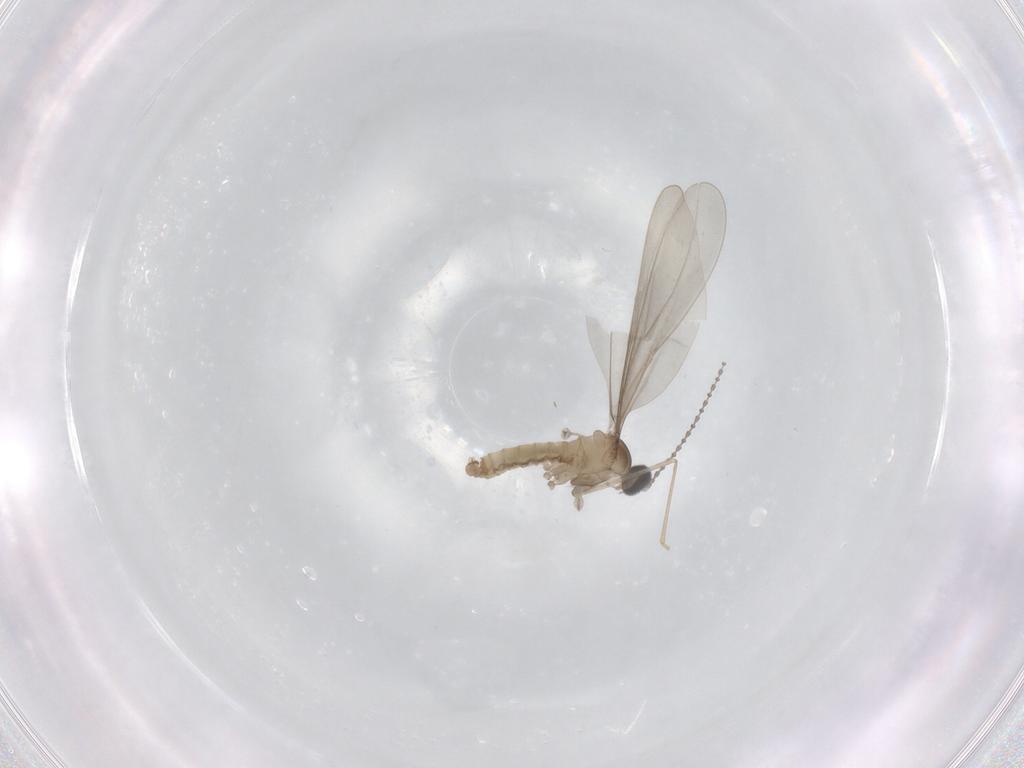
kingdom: Animalia
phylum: Arthropoda
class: Insecta
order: Diptera
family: Cecidomyiidae
